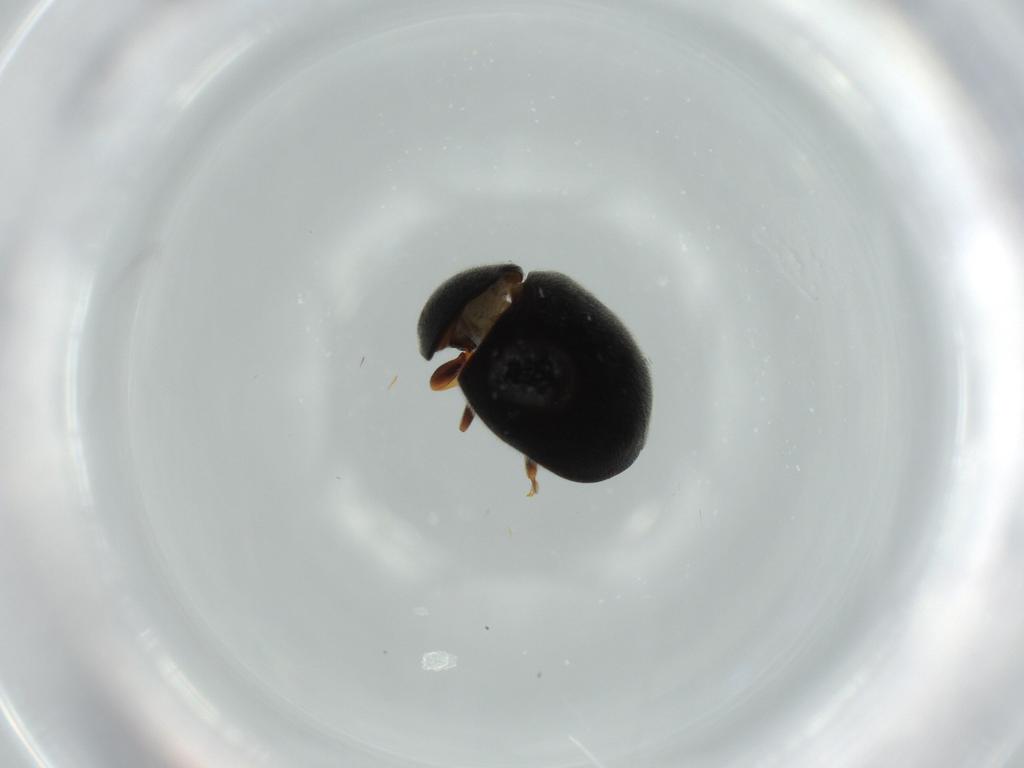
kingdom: Animalia
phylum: Arthropoda
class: Insecta
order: Coleoptera
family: Coccinellidae
